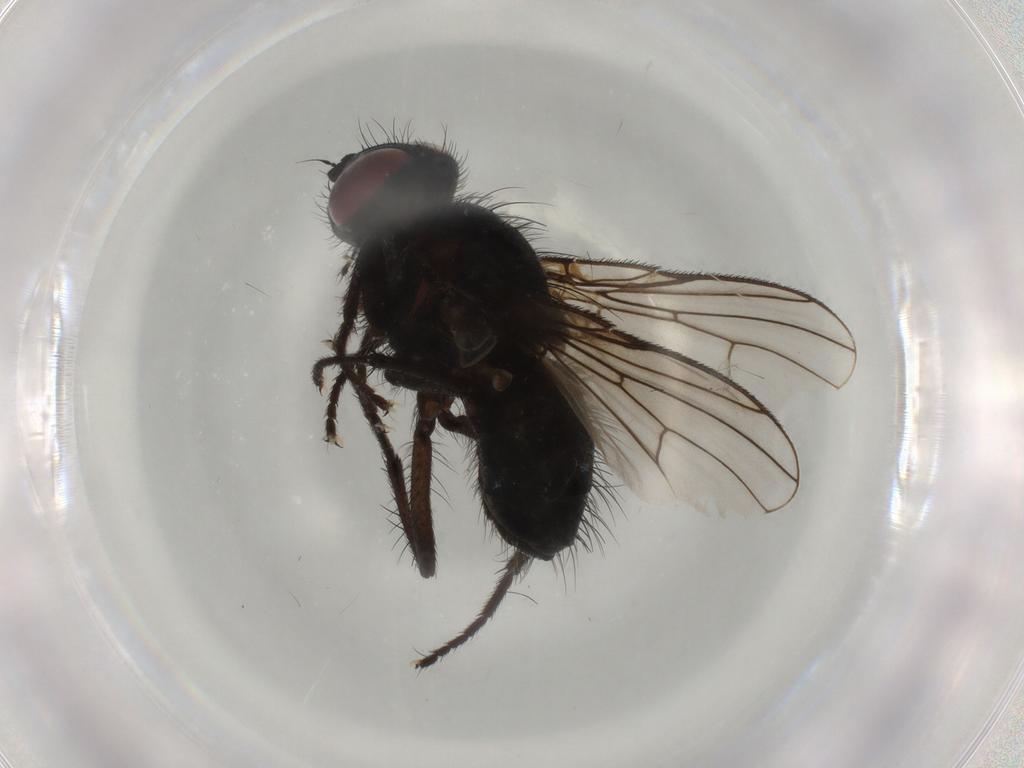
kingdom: Animalia
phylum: Arthropoda
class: Insecta
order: Diptera
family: Muscidae
